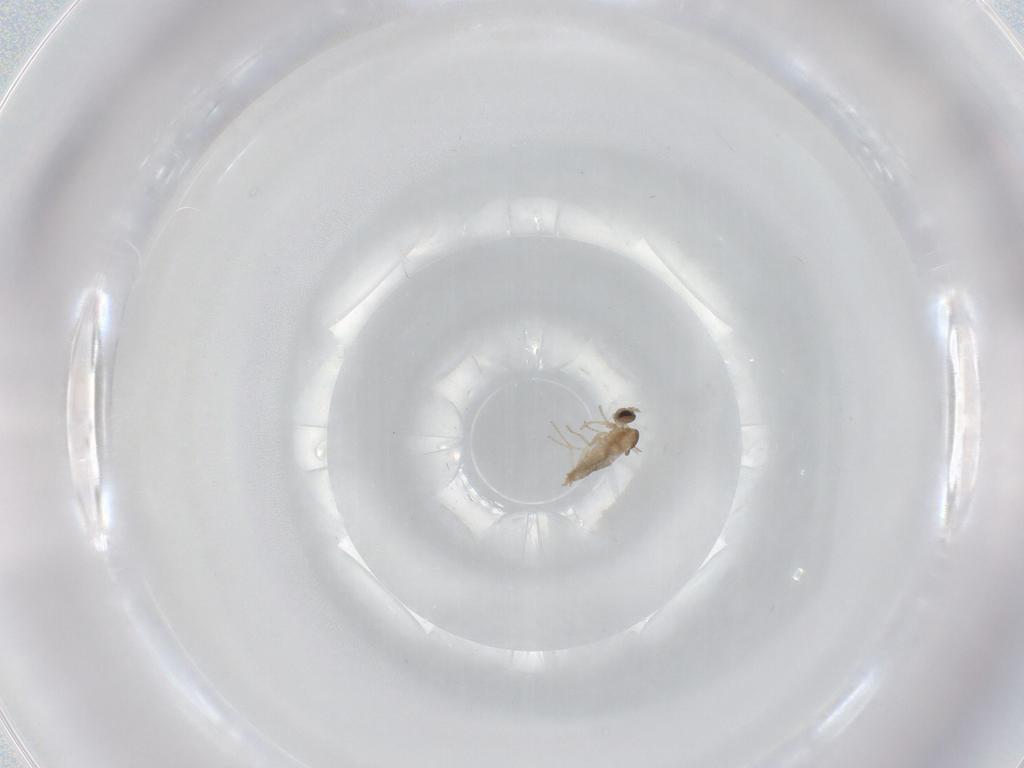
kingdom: Animalia
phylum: Arthropoda
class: Insecta
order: Diptera
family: Cecidomyiidae
